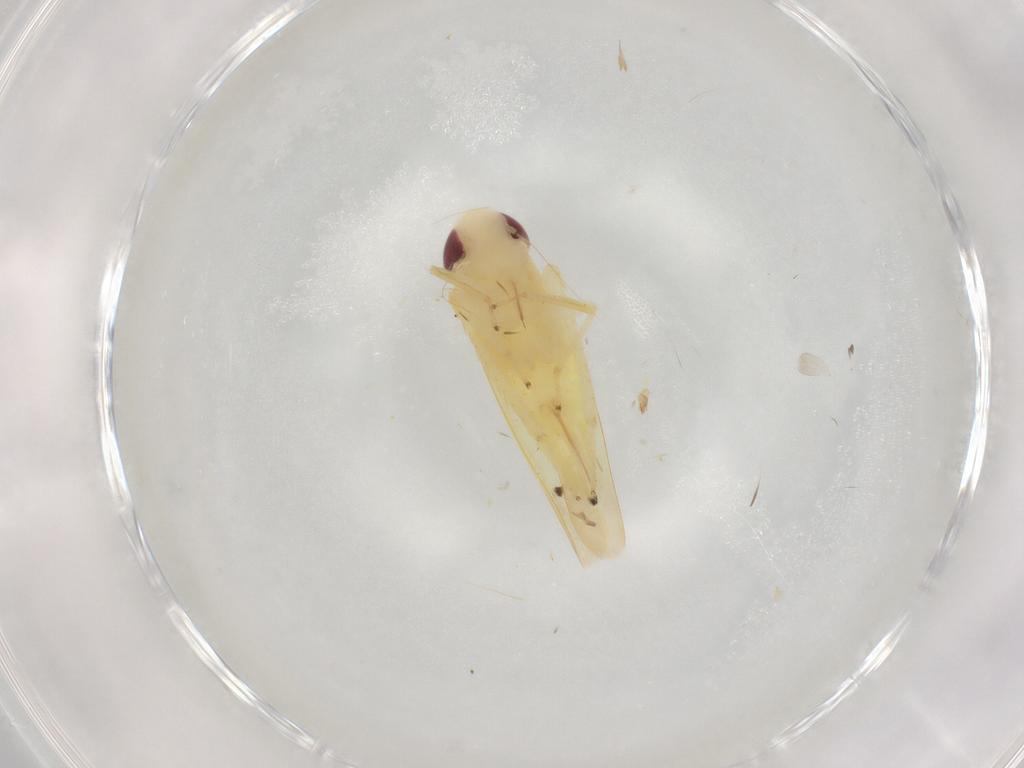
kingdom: Animalia
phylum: Arthropoda
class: Insecta
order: Hemiptera
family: Cicadellidae
